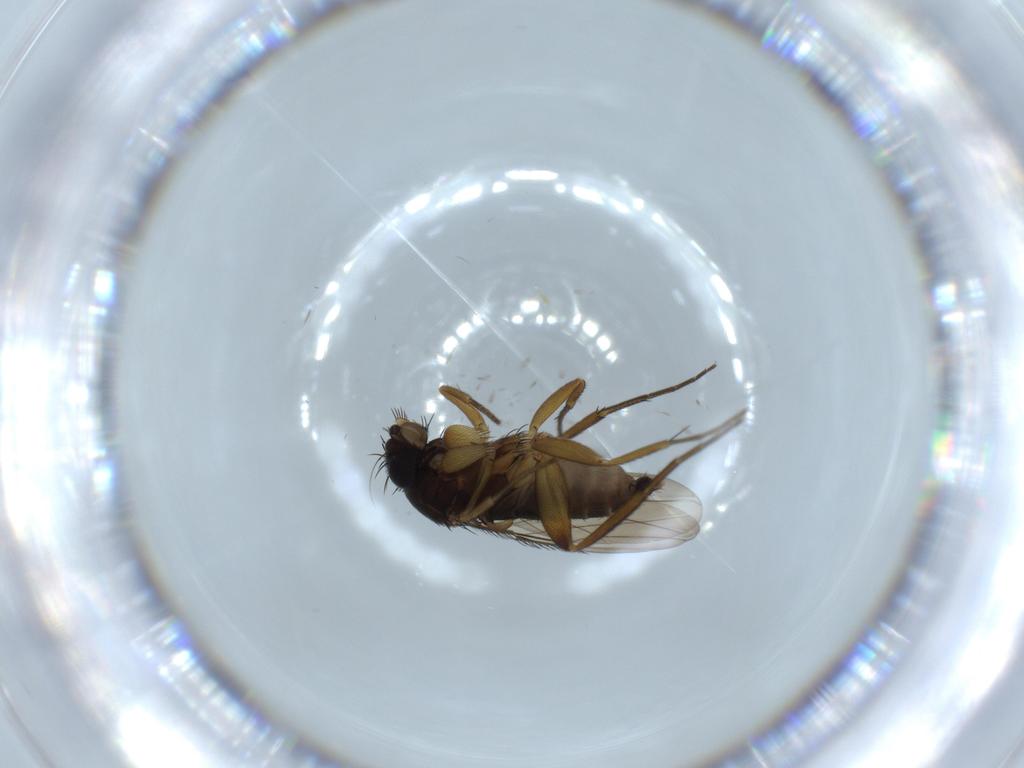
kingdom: Animalia
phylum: Arthropoda
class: Insecta
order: Diptera
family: Phoridae
